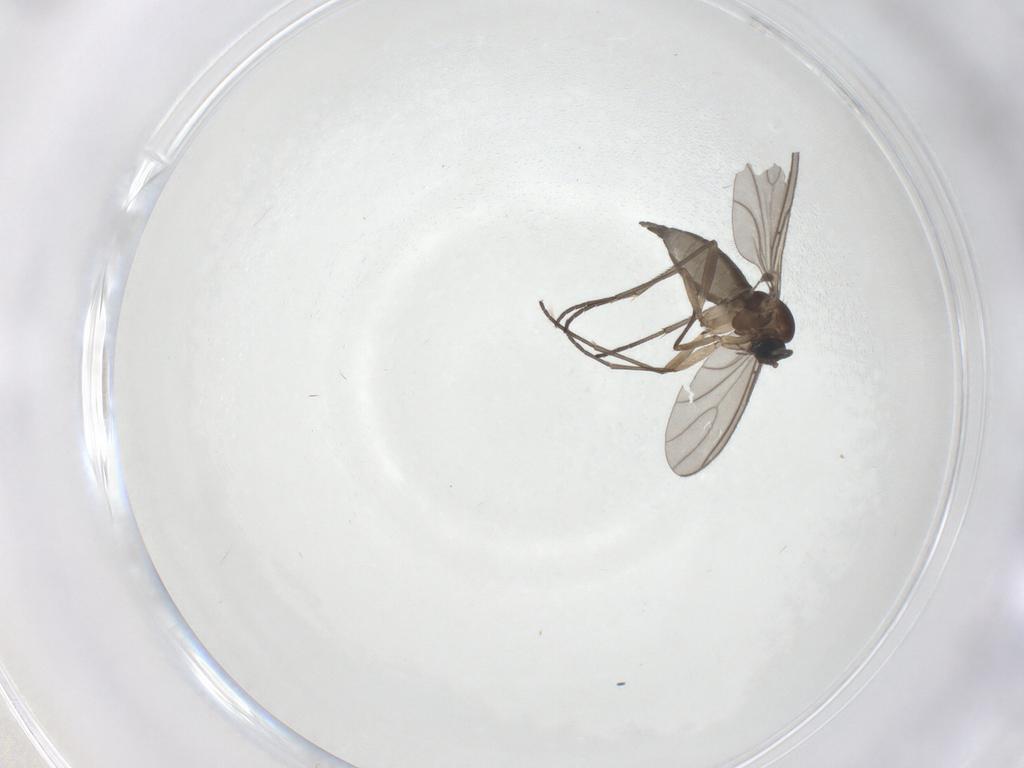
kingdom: Animalia
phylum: Arthropoda
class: Insecta
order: Diptera
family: Sciaridae
